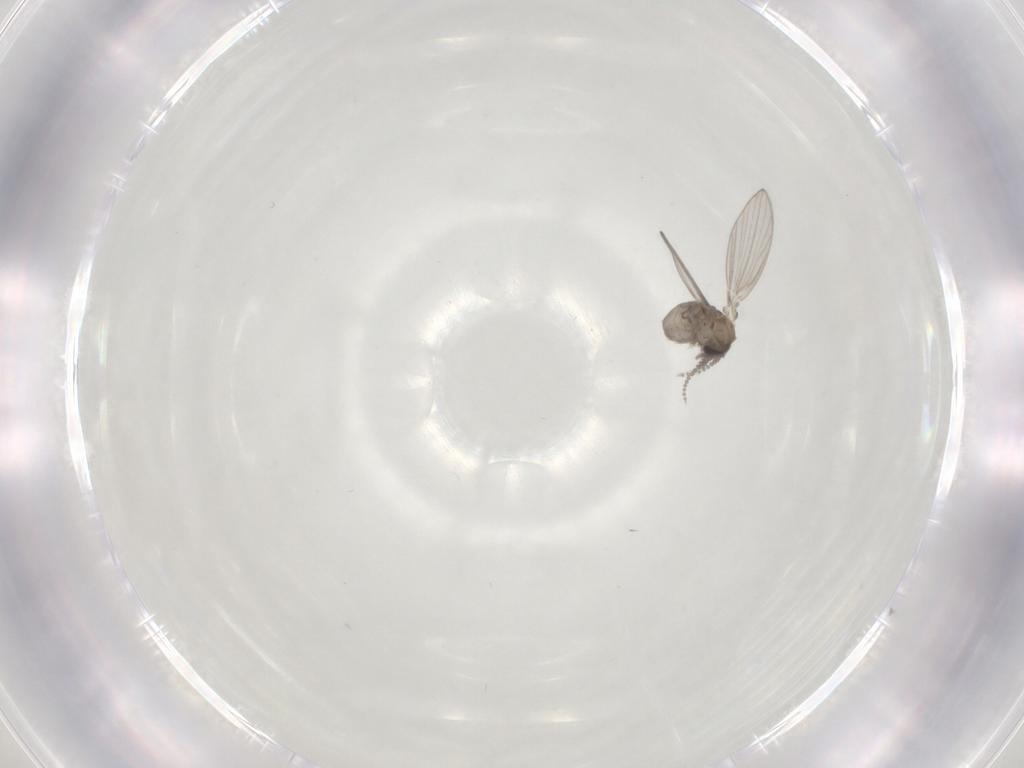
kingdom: Animalia
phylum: Arthropoda
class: Insecta
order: Diptera
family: Psychodidae
